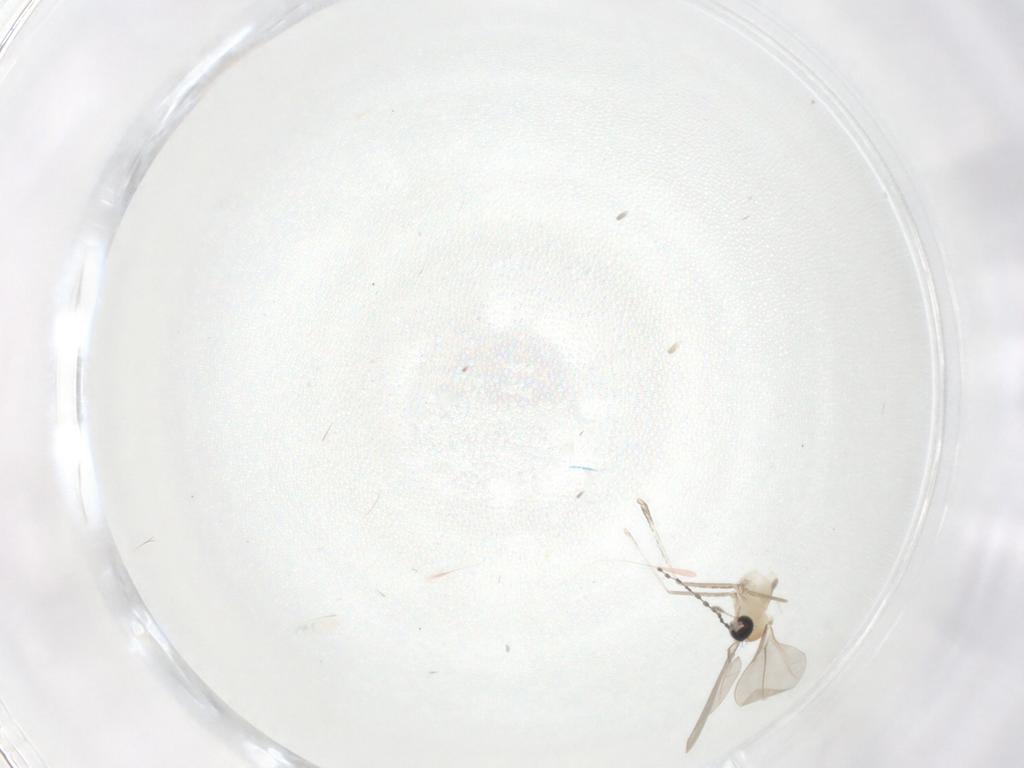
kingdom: Animalia
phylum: Arthropoda
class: Insecta
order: Diptera
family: Cecidomyiidae
